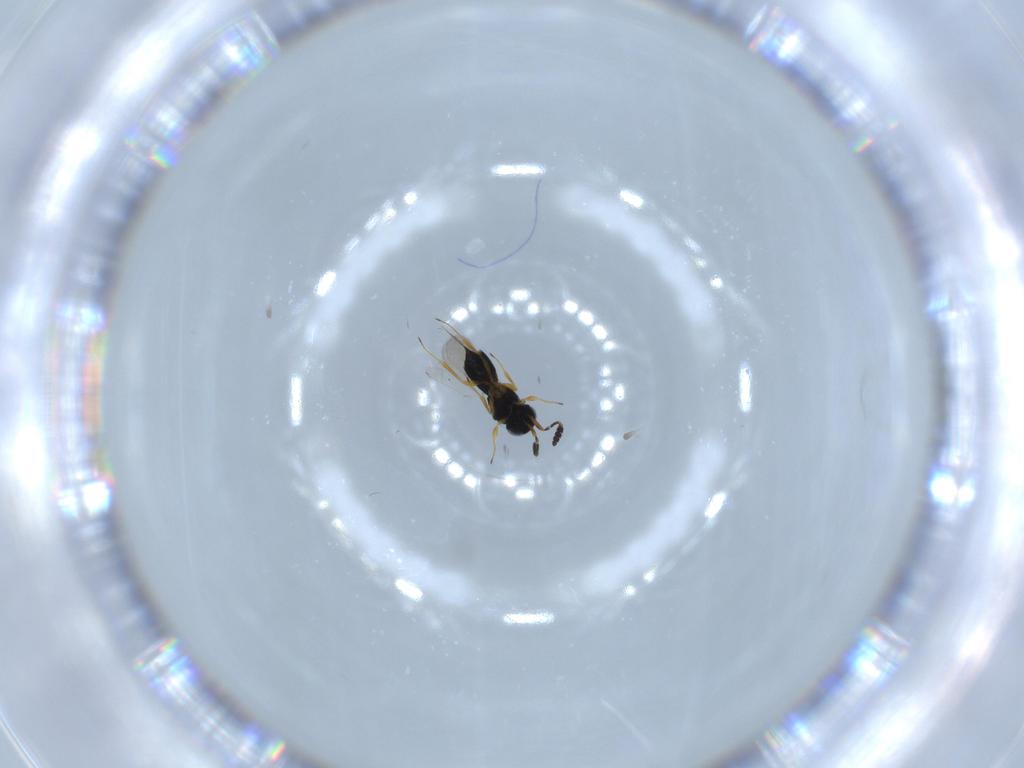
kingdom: Animalia
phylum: Arthropoda
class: Insecta
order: Hymenoptera
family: Scelionidae
